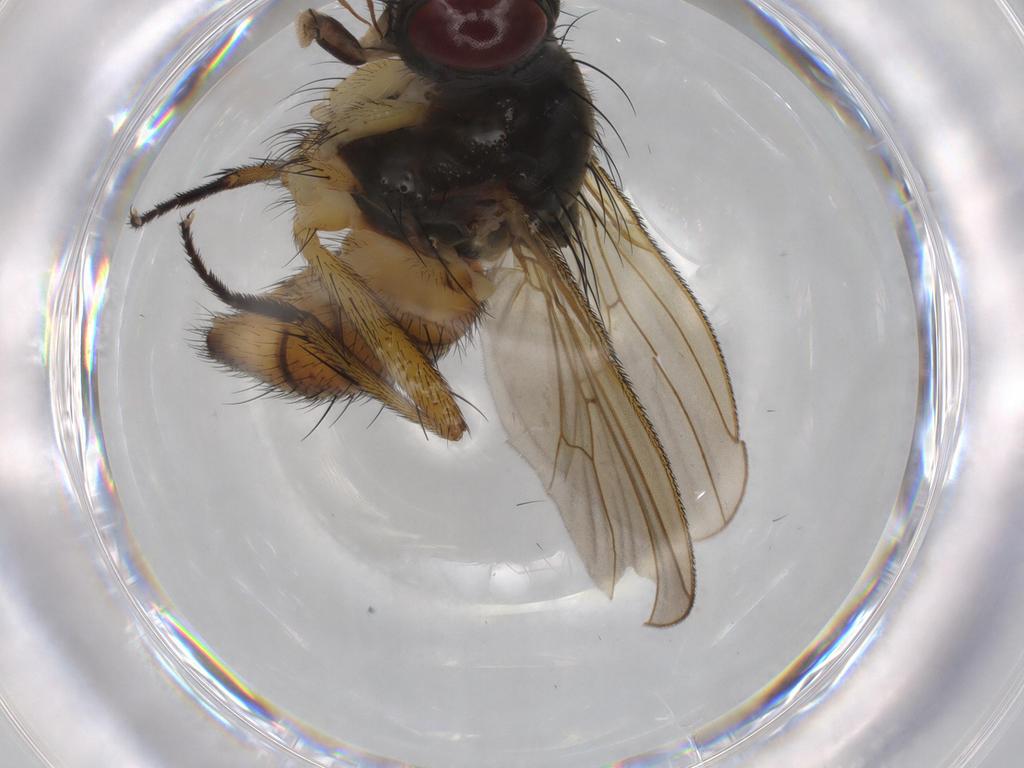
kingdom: Animalia
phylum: Arthropoda
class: Insecta
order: Diptera
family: Muscidae
